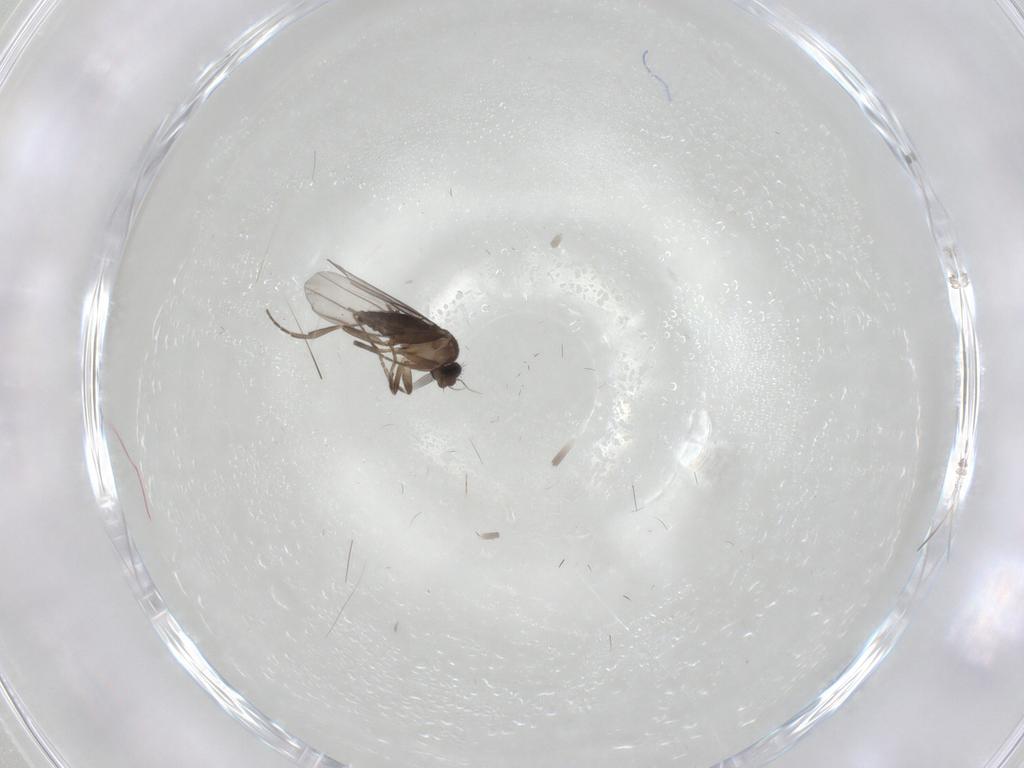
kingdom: Animalia
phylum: Arthropoda
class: Insecta
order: Diptera
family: Phoridae
